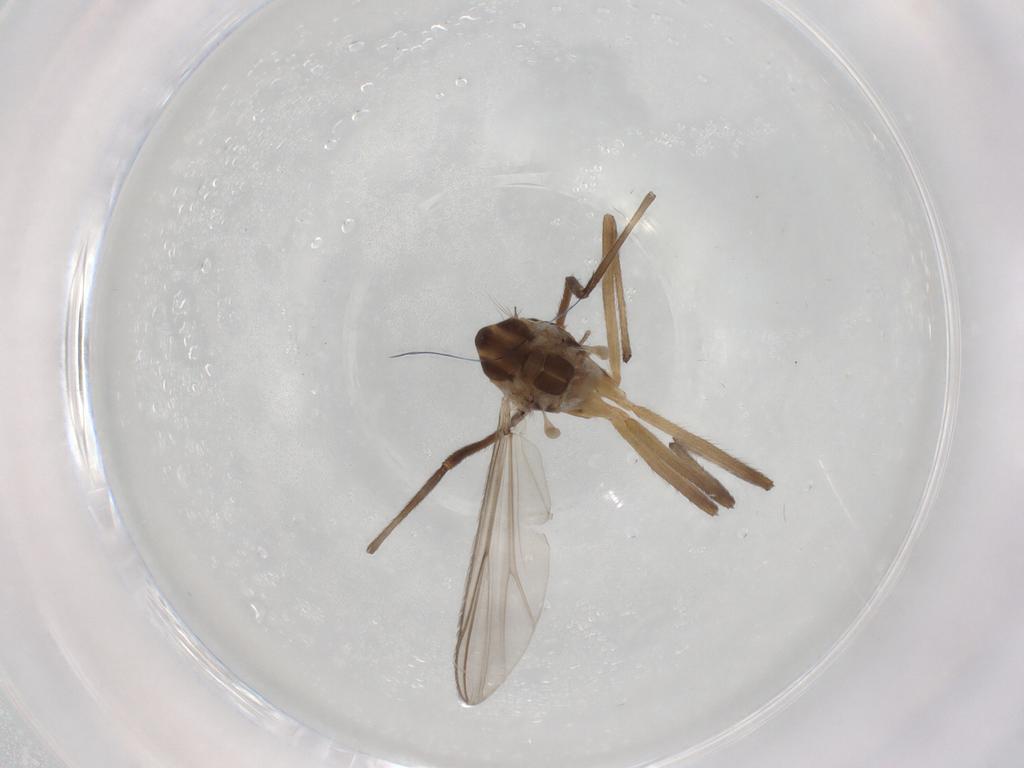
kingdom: Animalia
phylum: Arthropoda
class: Insecta
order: Diptera
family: Chironomidae
